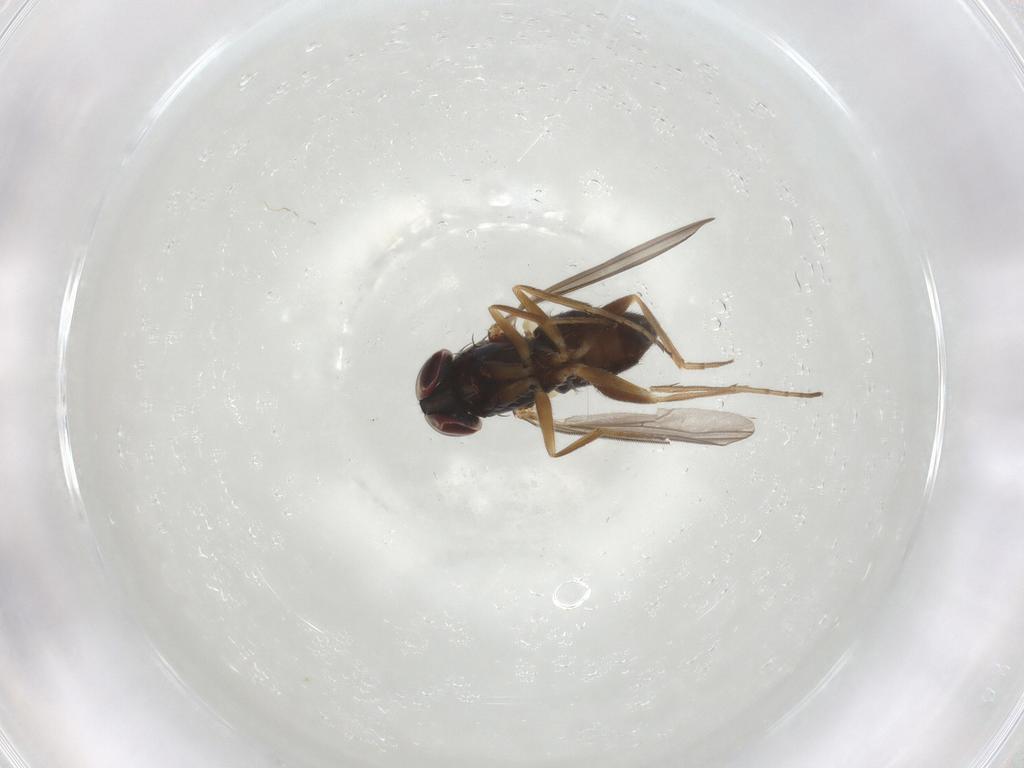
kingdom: Animalia
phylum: Arthropoda
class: Insecta
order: Diptera
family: Dolichopodidae
